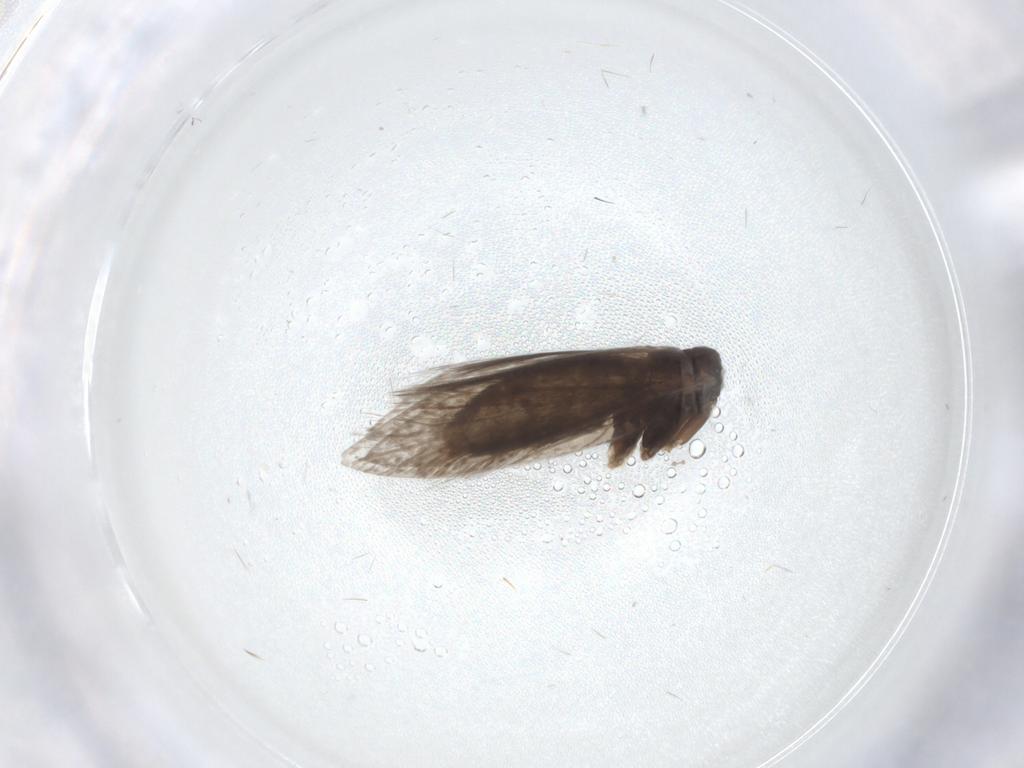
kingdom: Animalia
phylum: Arthropoda
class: Insecta
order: Lepidoptera
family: Micropterigidae
